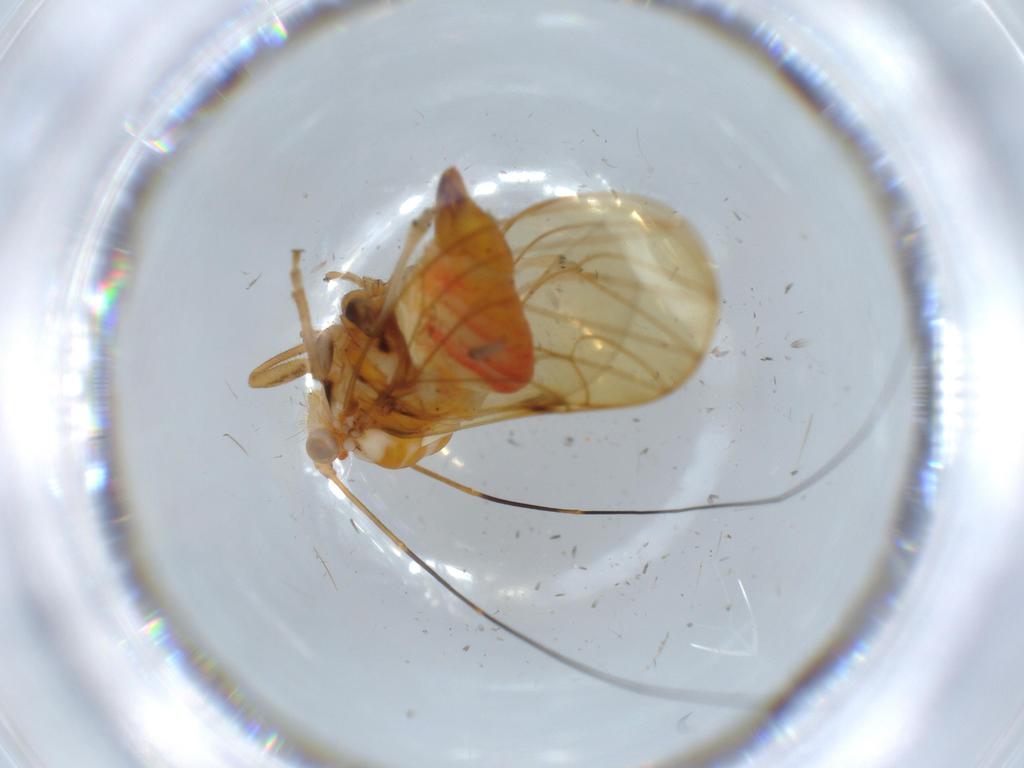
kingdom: Animalia
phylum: Arthropoda
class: Insecta
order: Hemiptera
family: Psyllidae
